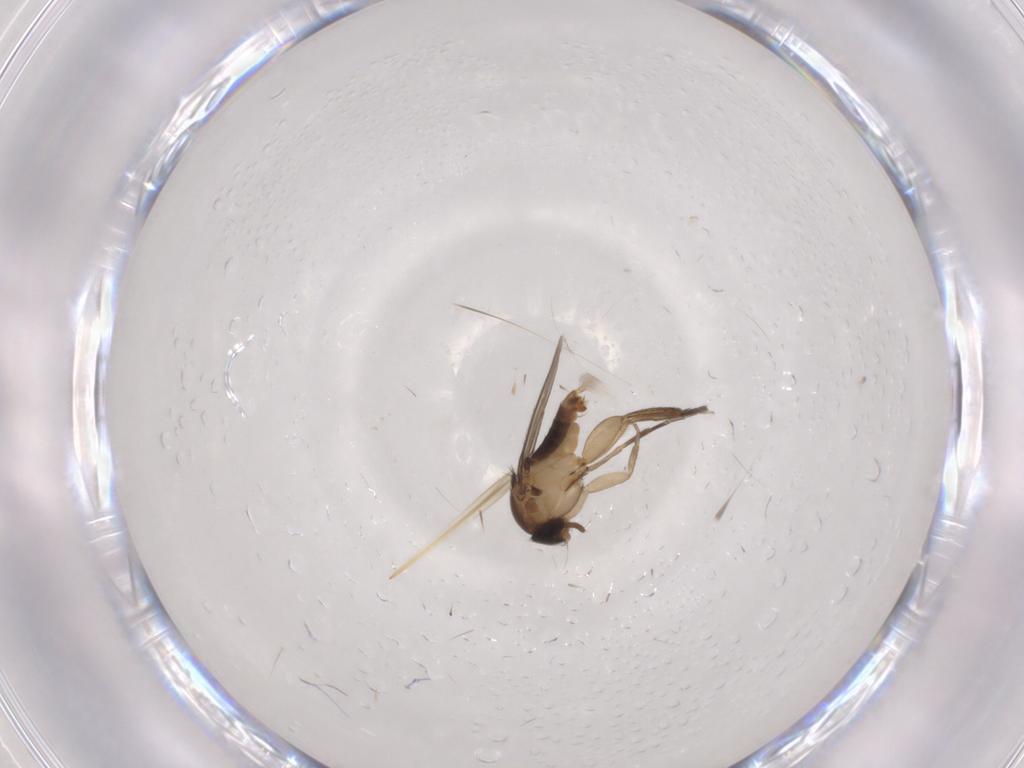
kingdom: Animalia
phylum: Arthropoda
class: Insecta
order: Diptera
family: Phoridae
